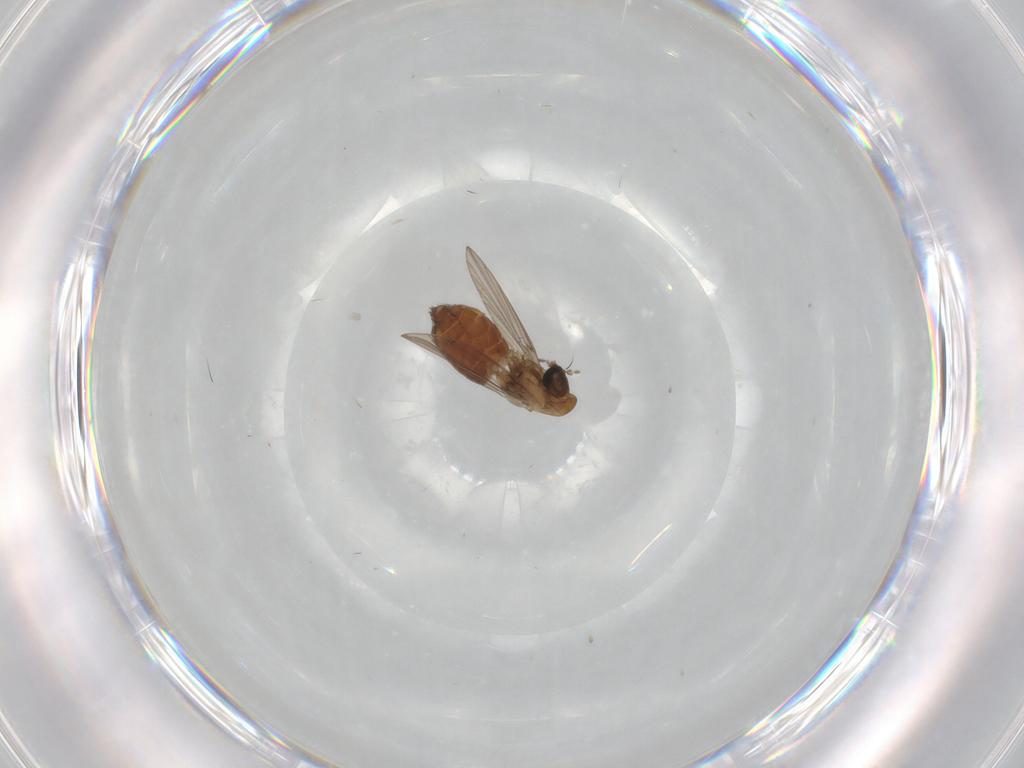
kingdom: Animalia
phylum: Arthropoda
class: Insecta
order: Diptera
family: Psychodidae
